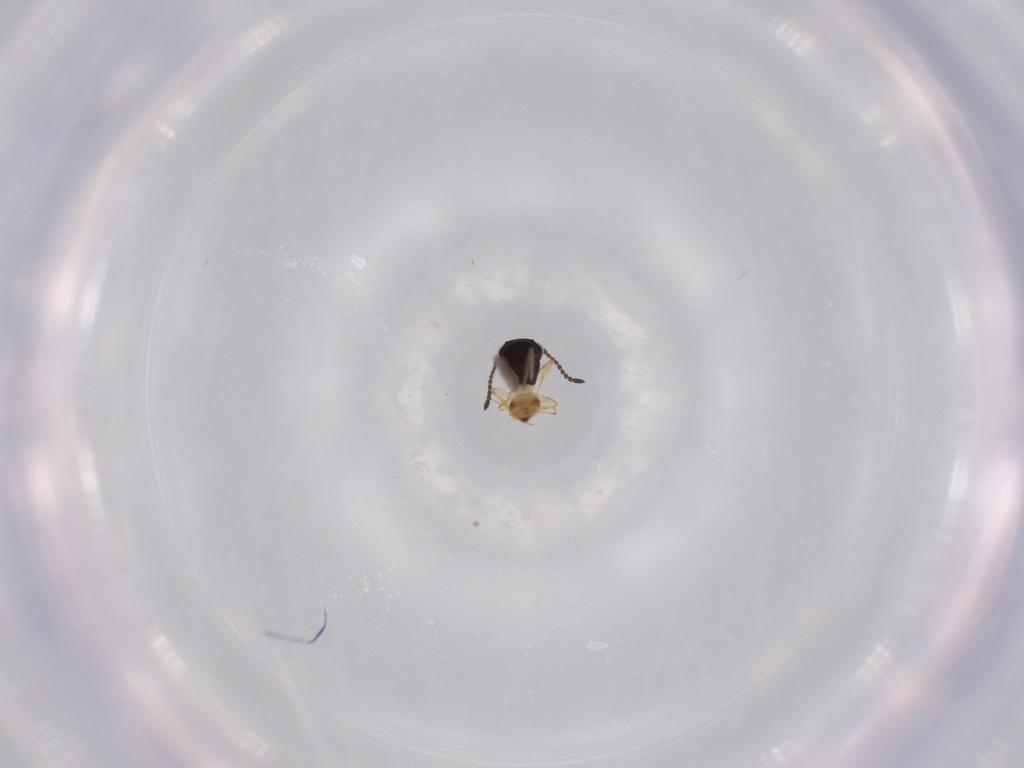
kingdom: Animalia
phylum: Arthropoda
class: Insecta
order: Hymenoptera
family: Scelionidae
